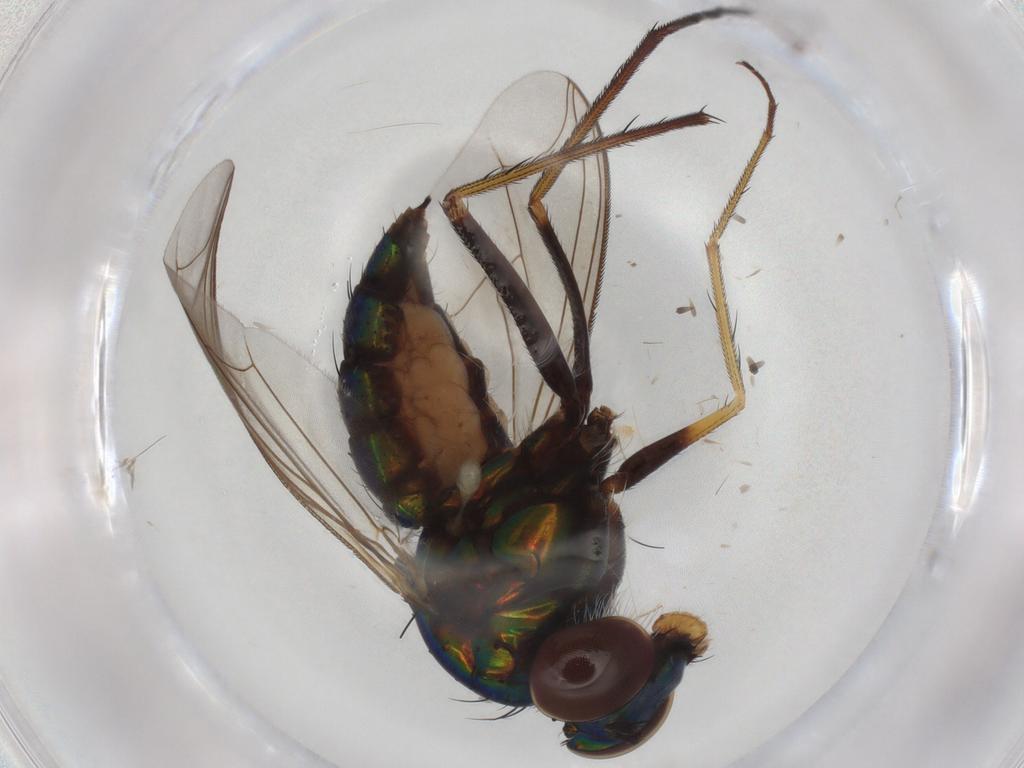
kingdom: Animalia
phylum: Arthropoda
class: Insecta
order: Diptera
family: Dolichopodidae
